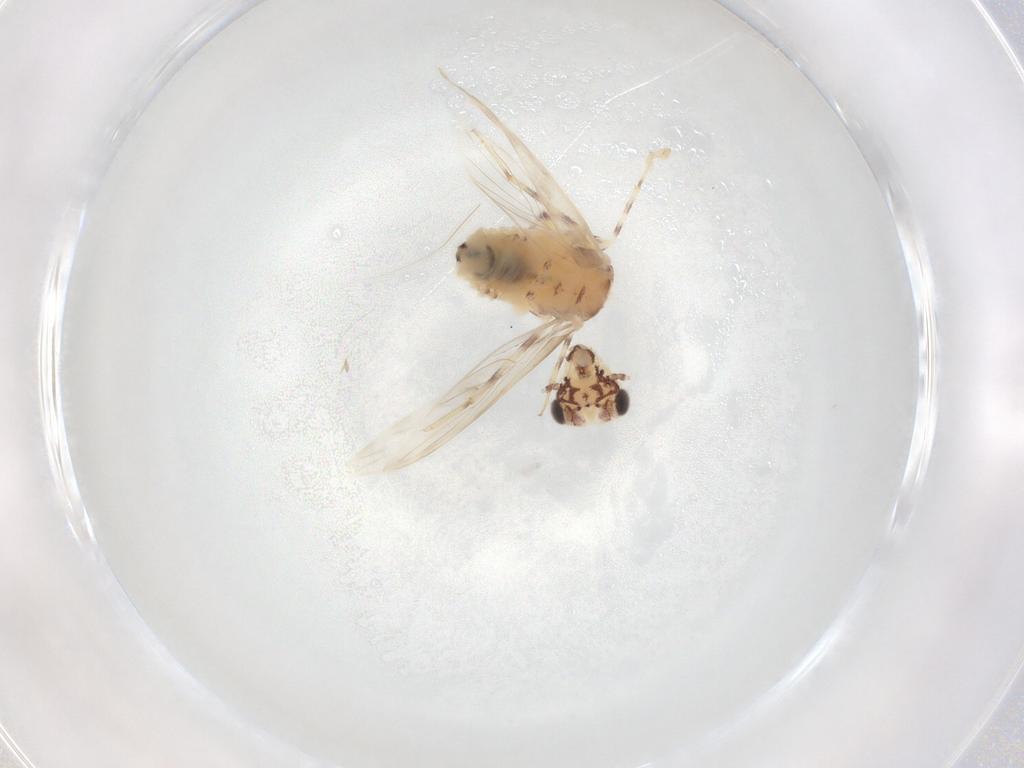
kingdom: Animalia
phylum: Arthropoda
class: Insecta
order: Psocodea
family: Lepidopsocidae
